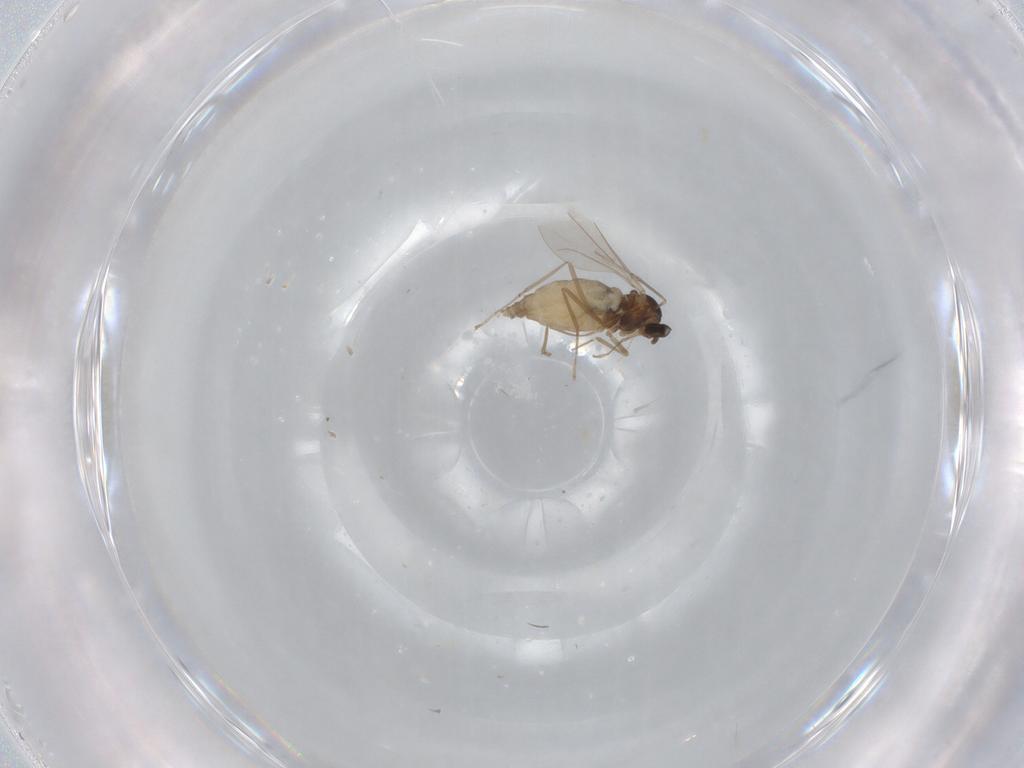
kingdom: Animalia
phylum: Arthropoda
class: Insecta
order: Diptera
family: Cecidomyiidae
